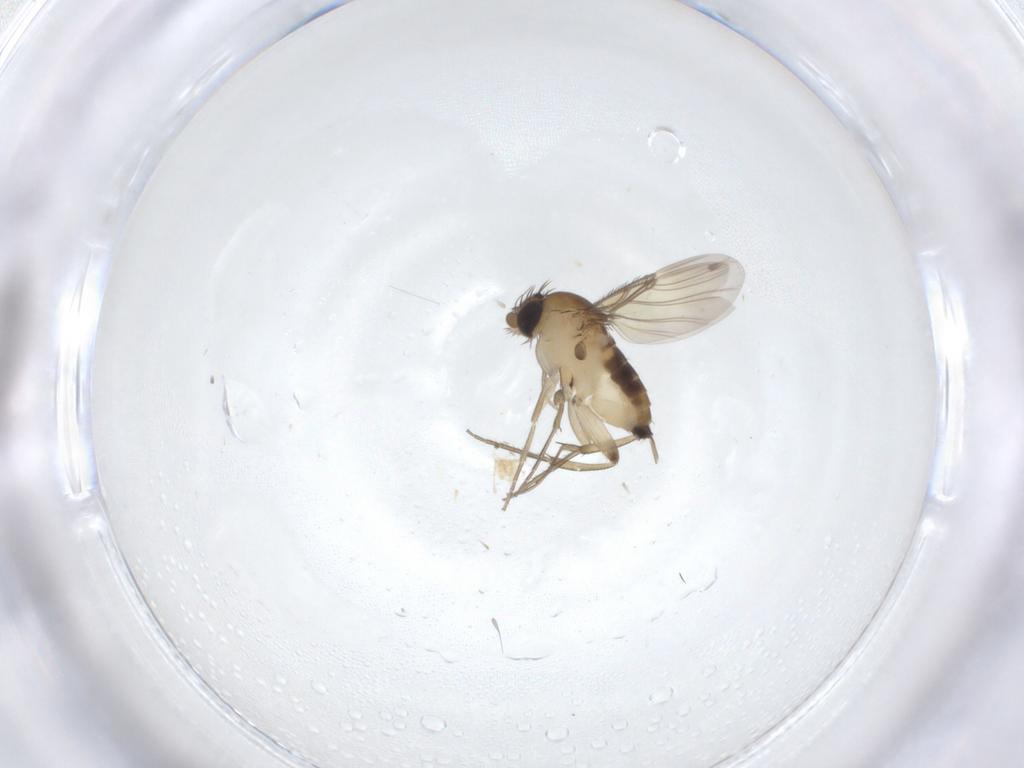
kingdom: Animalia
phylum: Arthropoda
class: Insecta
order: Diptera
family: Phoridae
